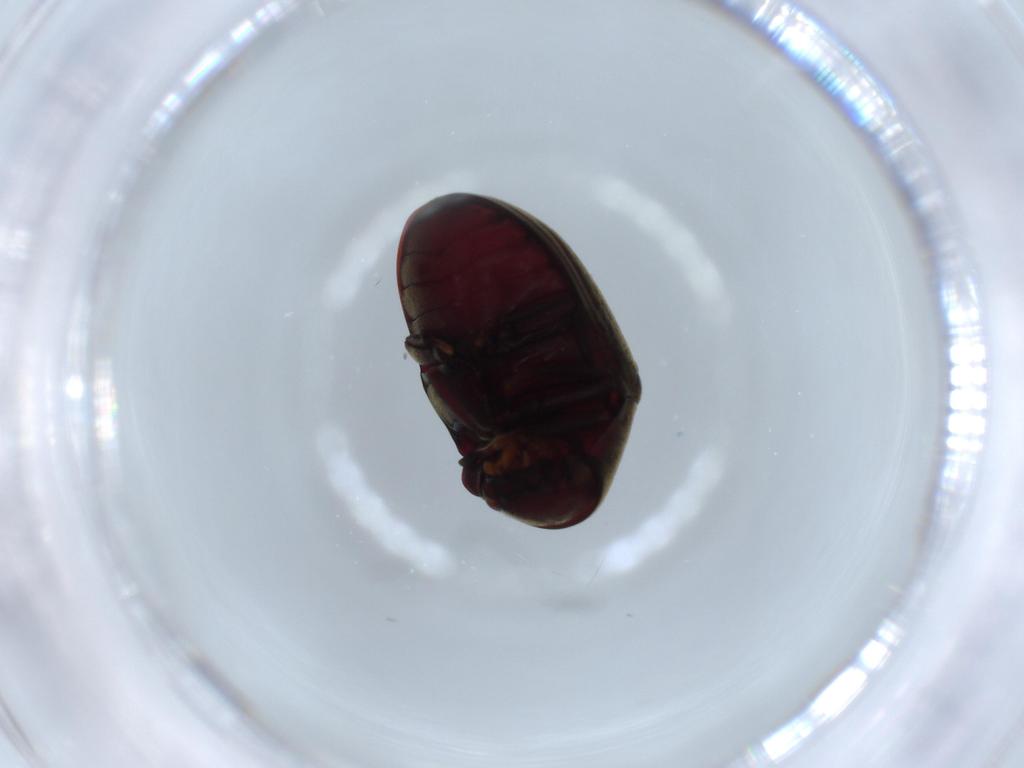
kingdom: Animalia
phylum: Arthropoda
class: Insecta
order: Coleoptera
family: Ptinidae
